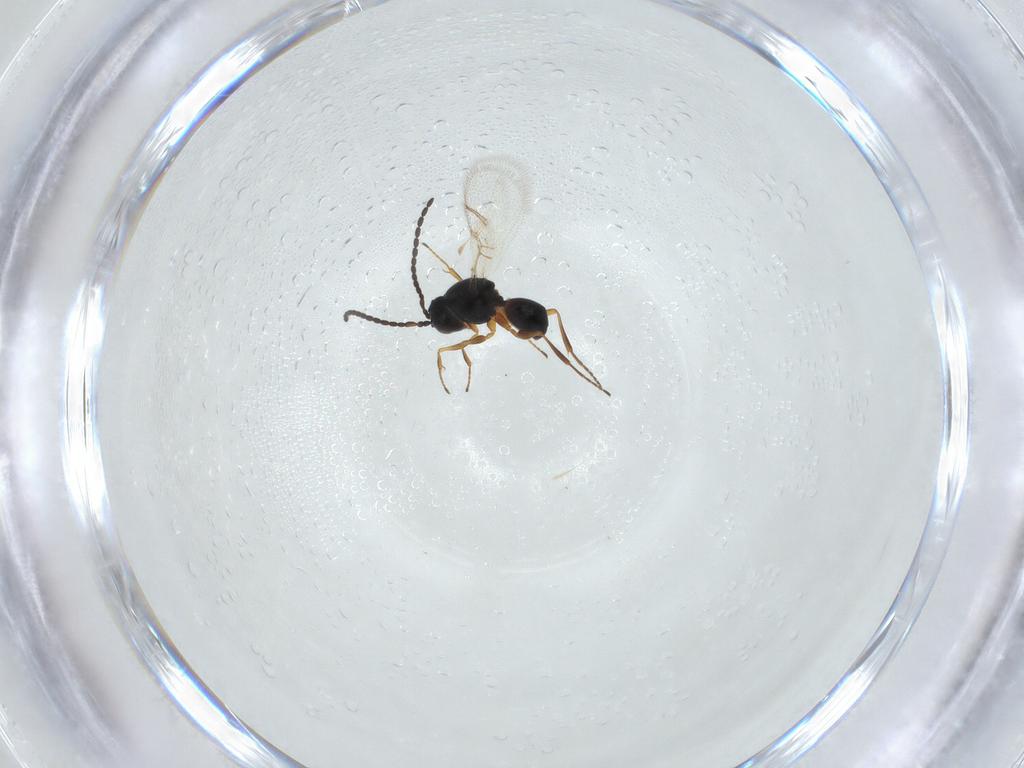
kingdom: Animalia
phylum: Arthropoda
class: Insecta
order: Hymenoptera
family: Figitidae
